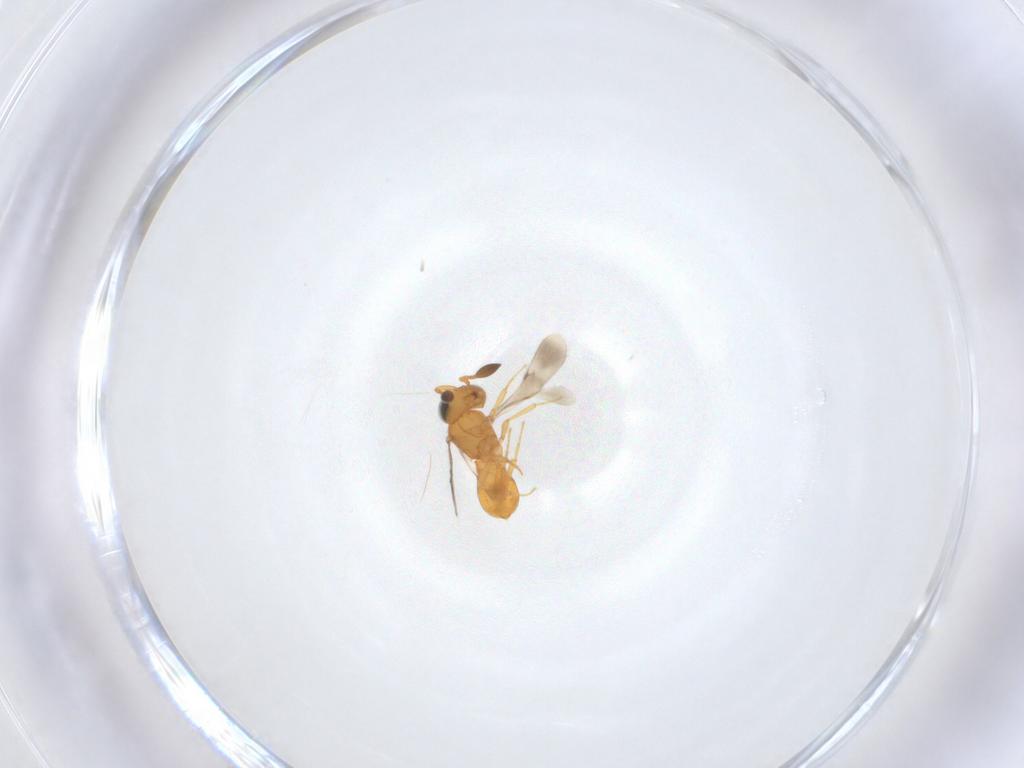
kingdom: Animalia
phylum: Arthropoda
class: Insecta
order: Hymenoptera
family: Scelionidae
